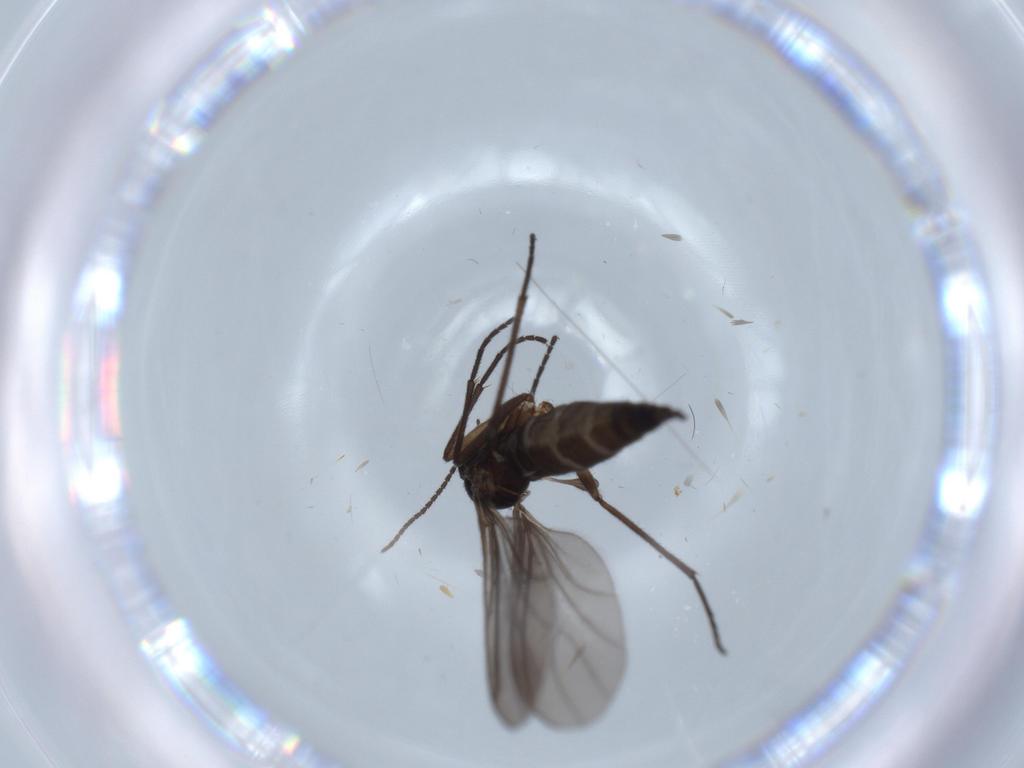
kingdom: Animalia
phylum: Arthropoda
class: Insecta
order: Diptera
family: Sciaridae
